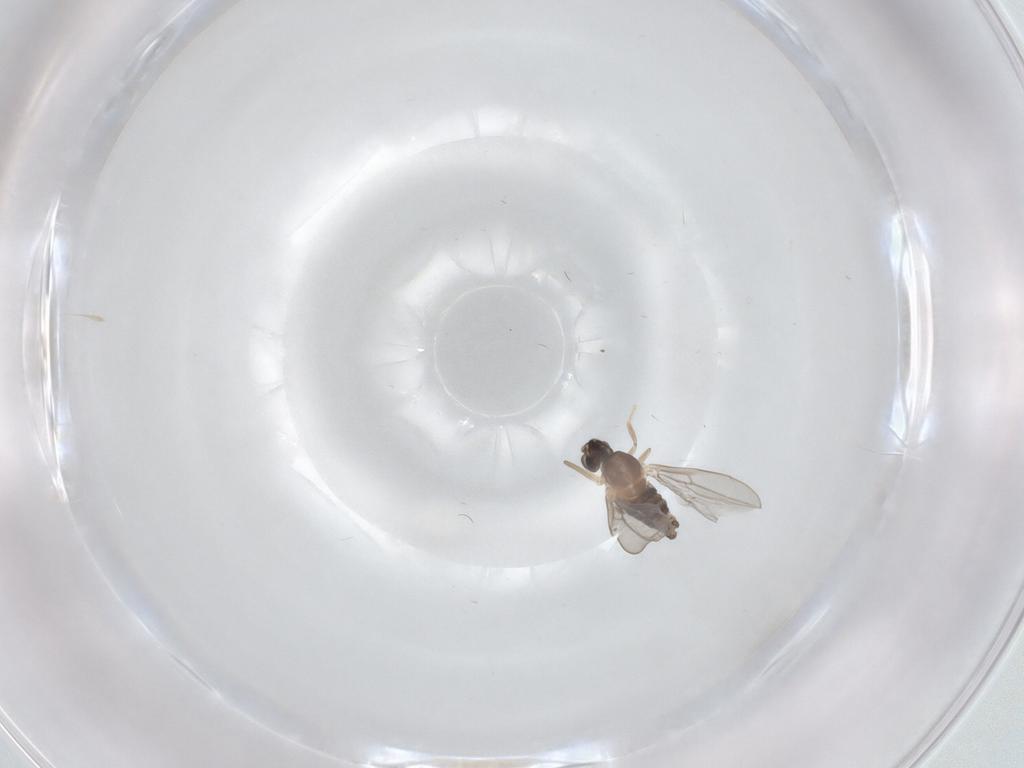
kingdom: Animalia
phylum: Arthropoda
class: Insecta
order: Diptera
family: Cecidomyiidae
